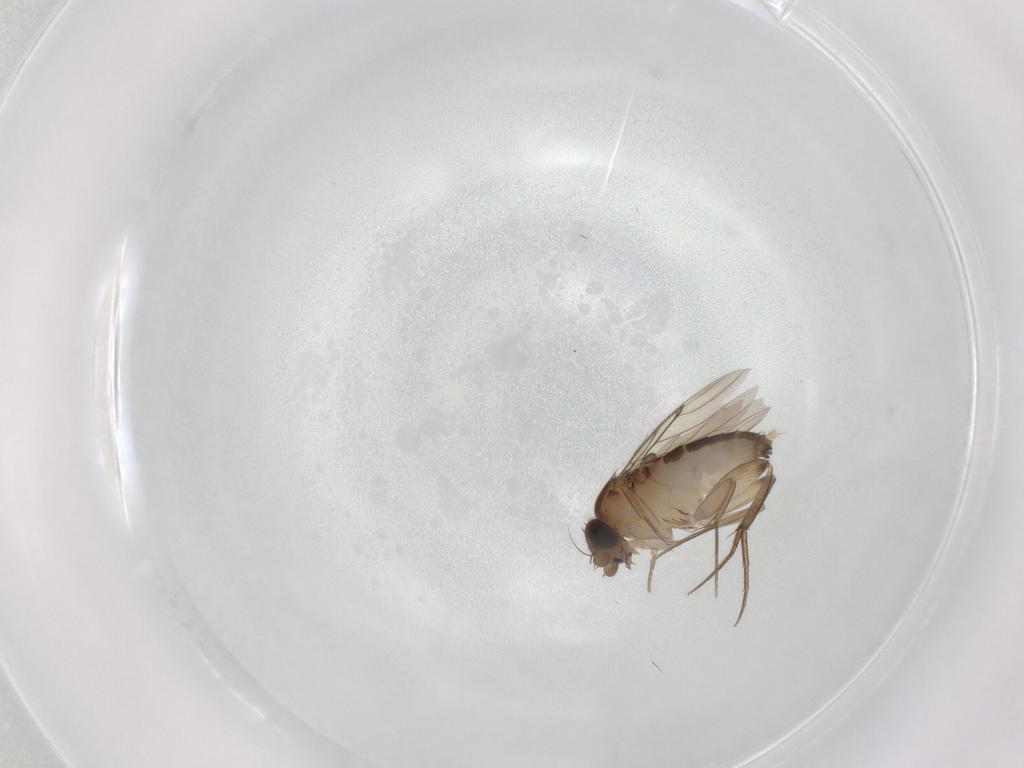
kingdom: Animalia
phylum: Arthropoda
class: Insecta
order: Diptera
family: Phoridae
